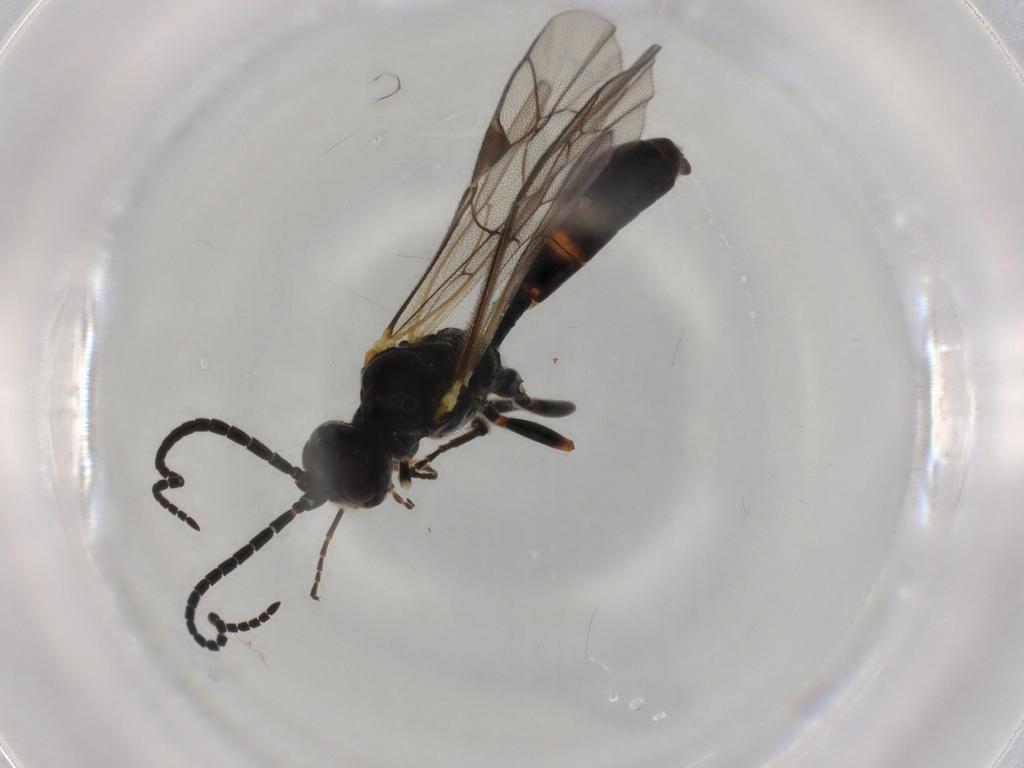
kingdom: Animalia
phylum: Arthropoda
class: Insecta
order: Hymenoptera
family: Ichneumonidae
